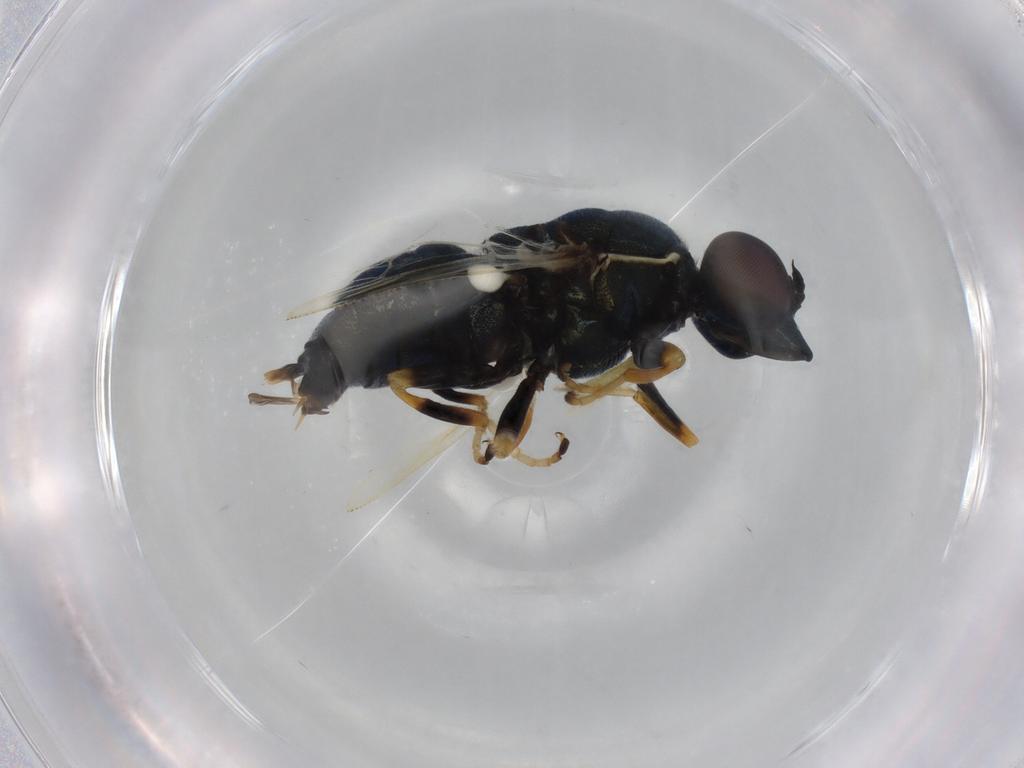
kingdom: Animalia
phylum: Arthropoda
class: Insecta
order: Diptera
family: Stratiomyidae
